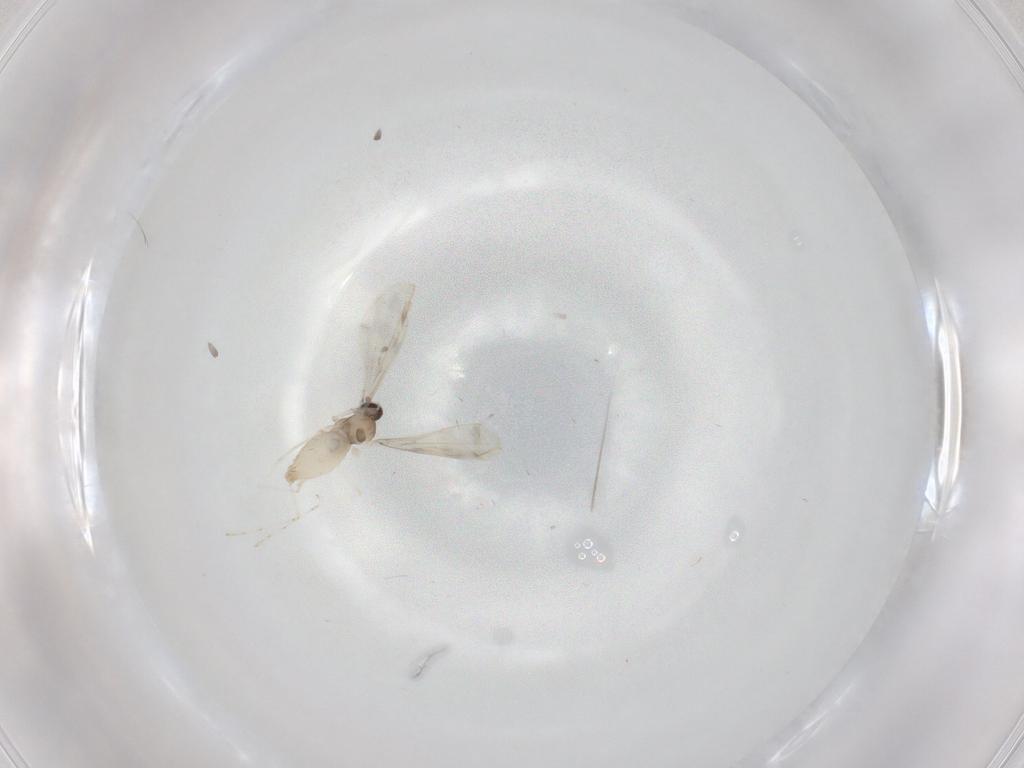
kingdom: Animalia
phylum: Arthropoda
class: Insecta
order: Diptera
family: Cecidomyiidae
